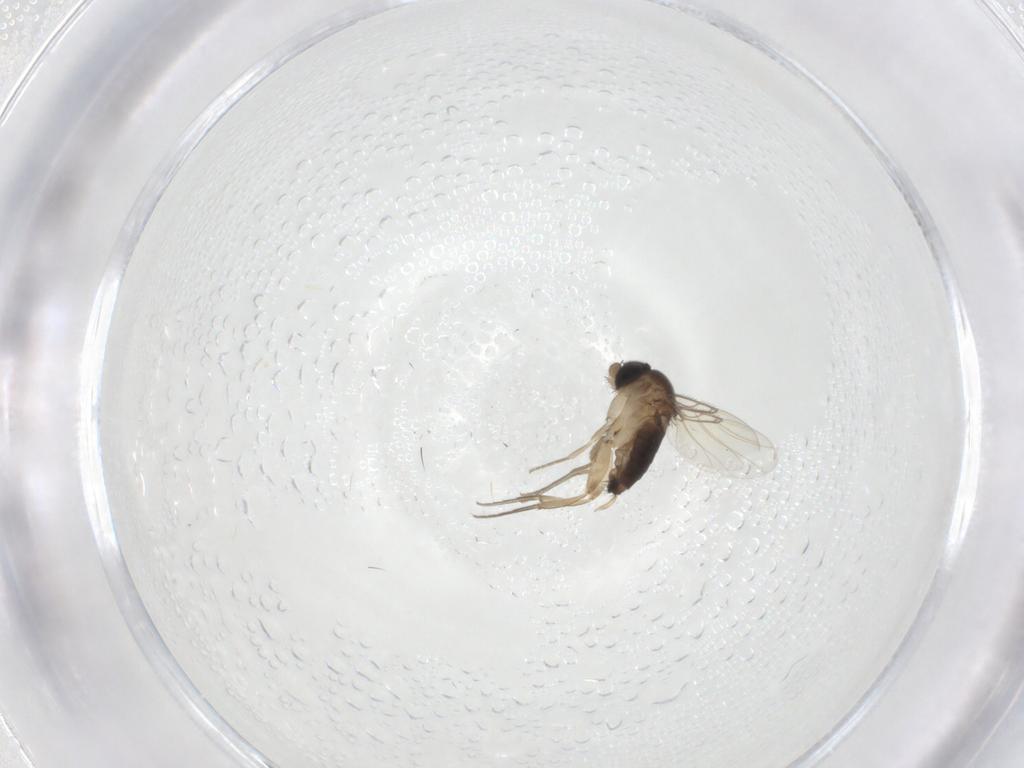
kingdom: Animalia
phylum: Arthropoda
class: Insecta
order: Diptera
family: Phoridae
